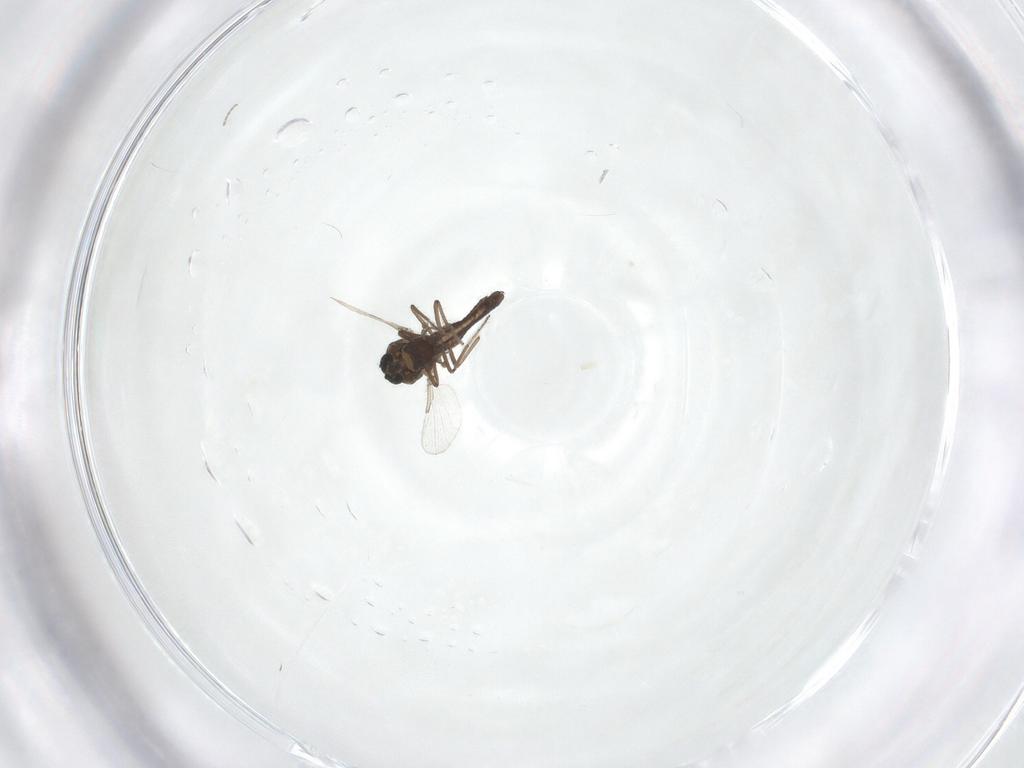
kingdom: Animalia
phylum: Arthropoda
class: Insecta
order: Diptera
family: Ceratopogonidae
